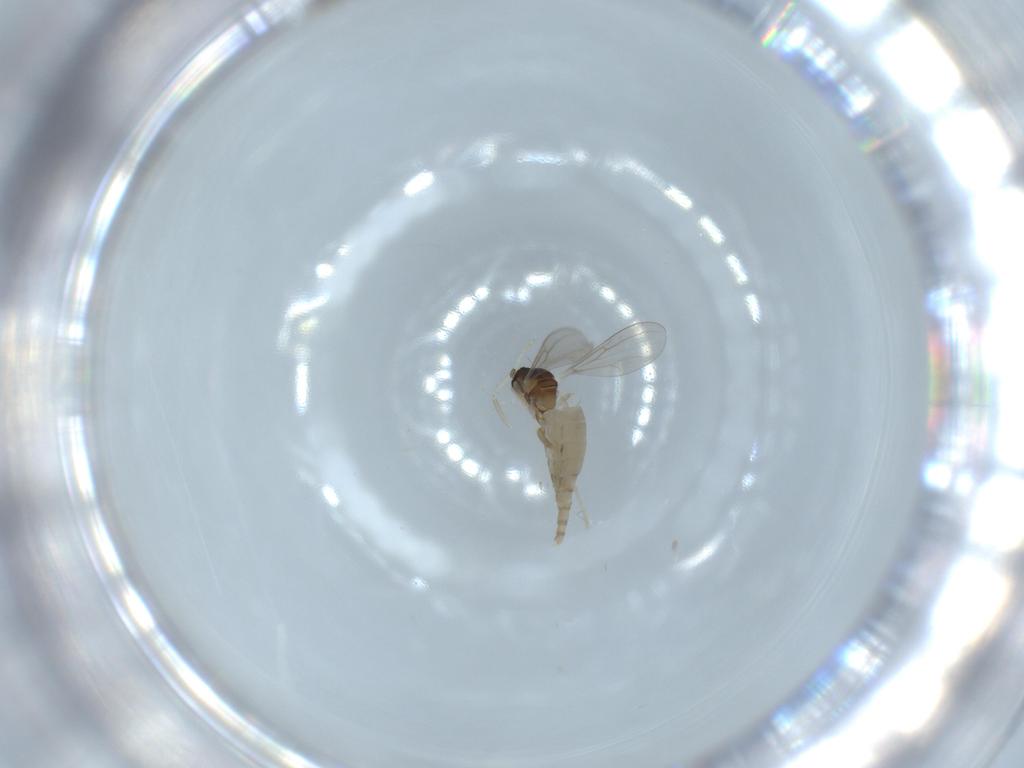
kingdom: Animalia
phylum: Arthropoda
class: Insecta
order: Diptera
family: Cecidomyiidae
